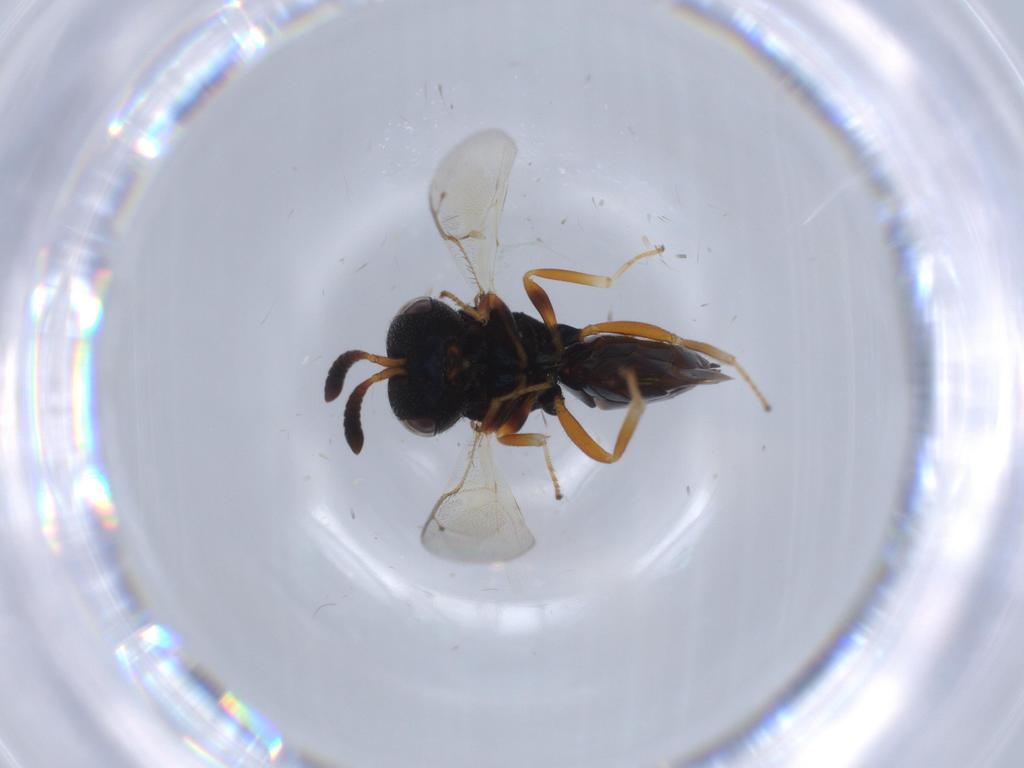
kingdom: Animalia
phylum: Arthropoda
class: Insecta
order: Hymenoptera
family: Agaonidae
